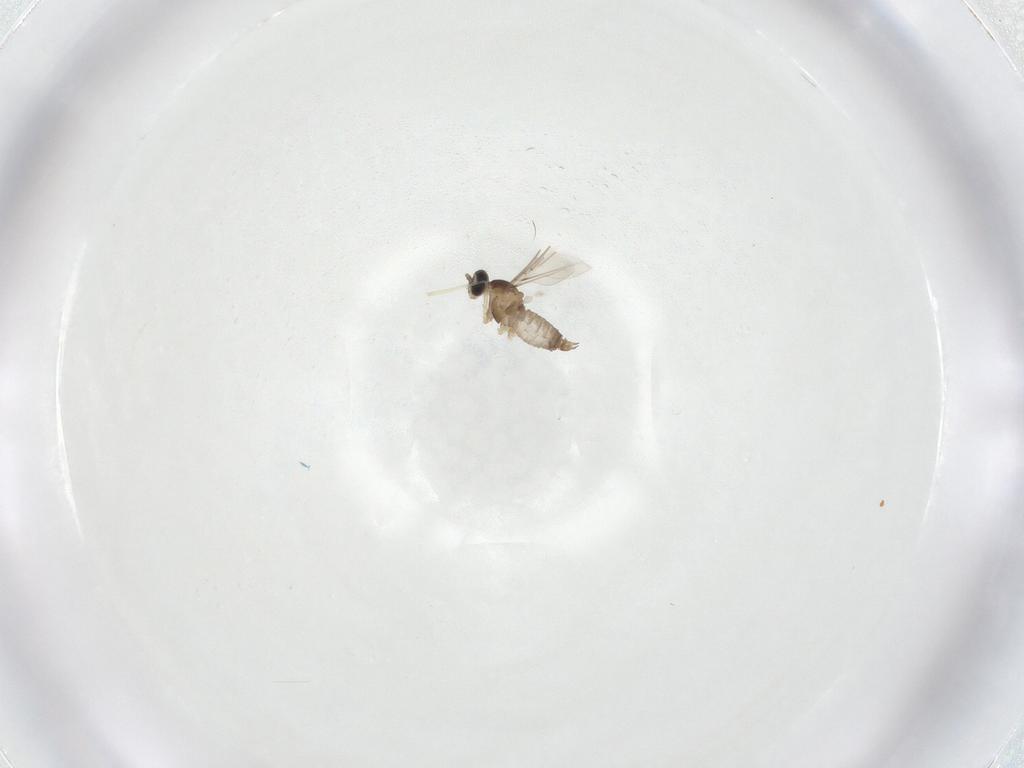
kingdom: Animalia
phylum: Arthropoda
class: Insecta
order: Diptera
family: Cecidomyiidae
